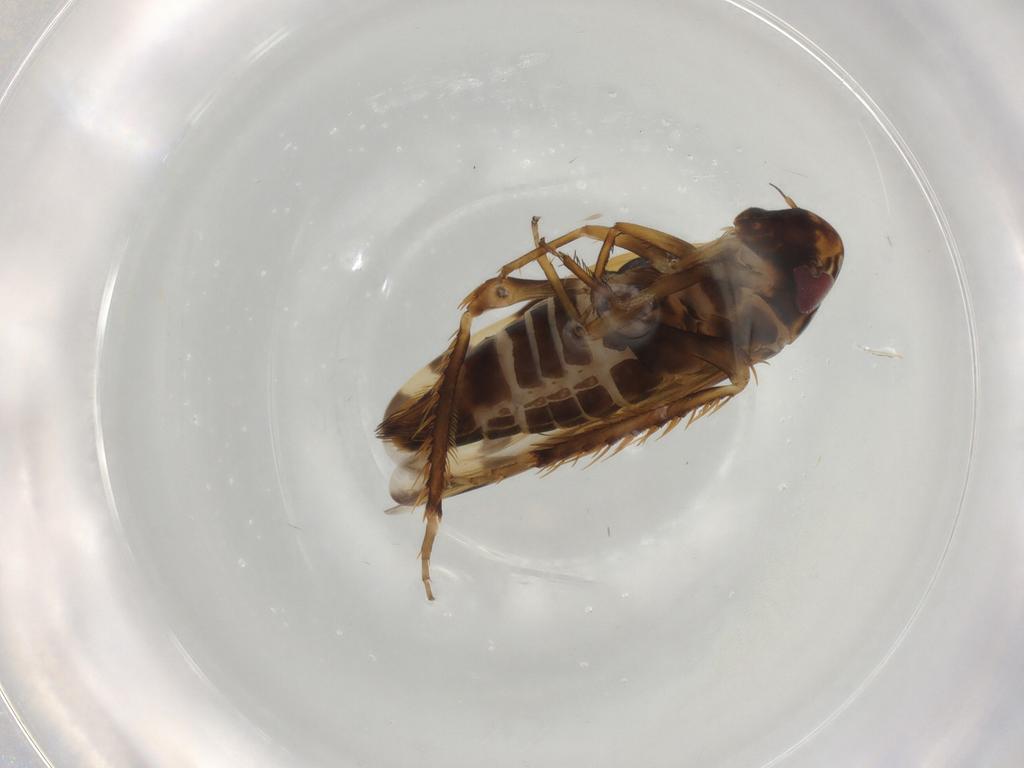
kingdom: Animalia
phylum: Arthropoda
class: Insecta
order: Hemiptera
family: Cicadellidae
